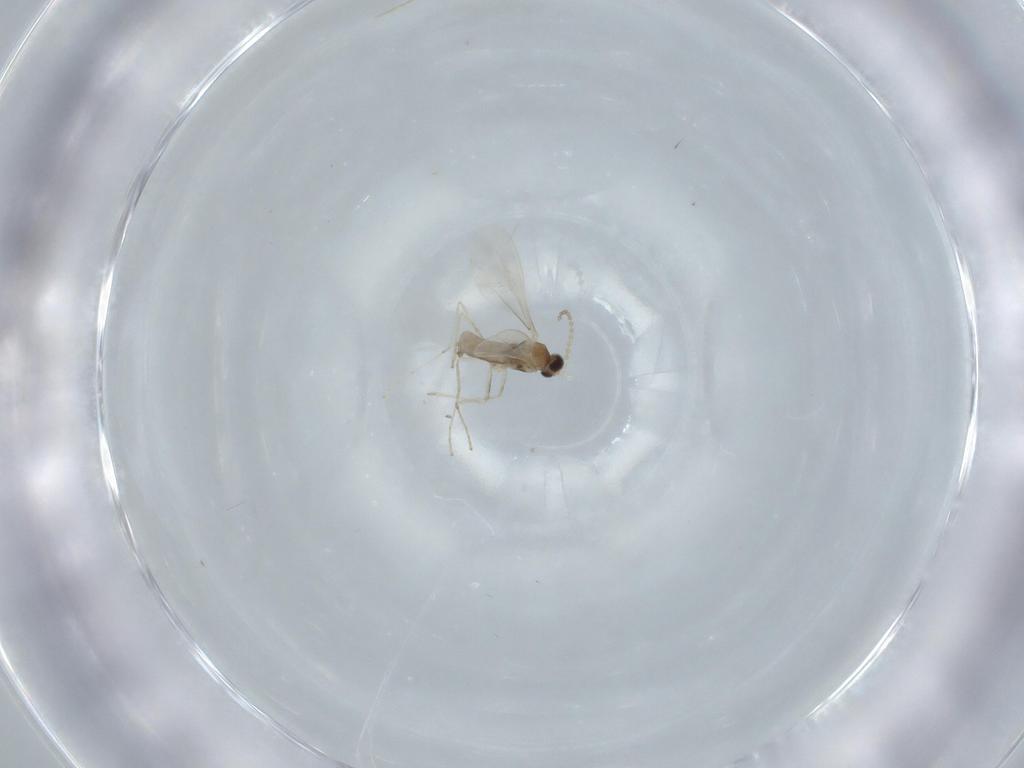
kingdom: Animalia
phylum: Arthropoda
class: Insecta
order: Diptera
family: Cecidomyiidae
